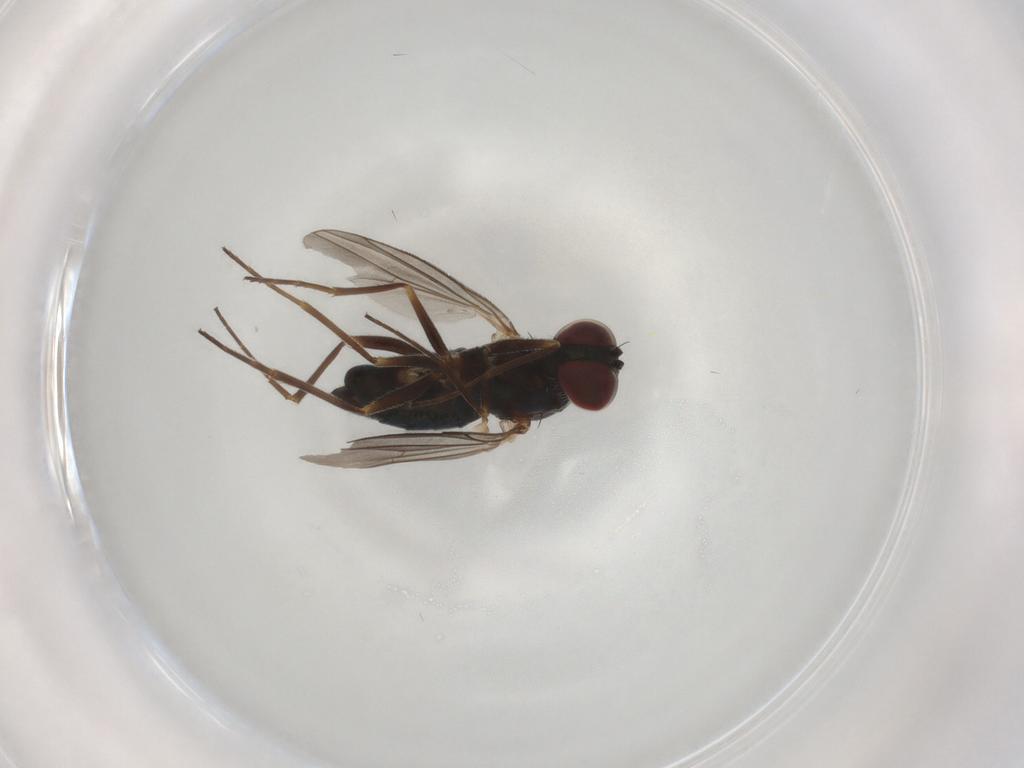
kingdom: Animalia
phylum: Arthropoda
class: Insecta
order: Diptera
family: Dolichopodidae
